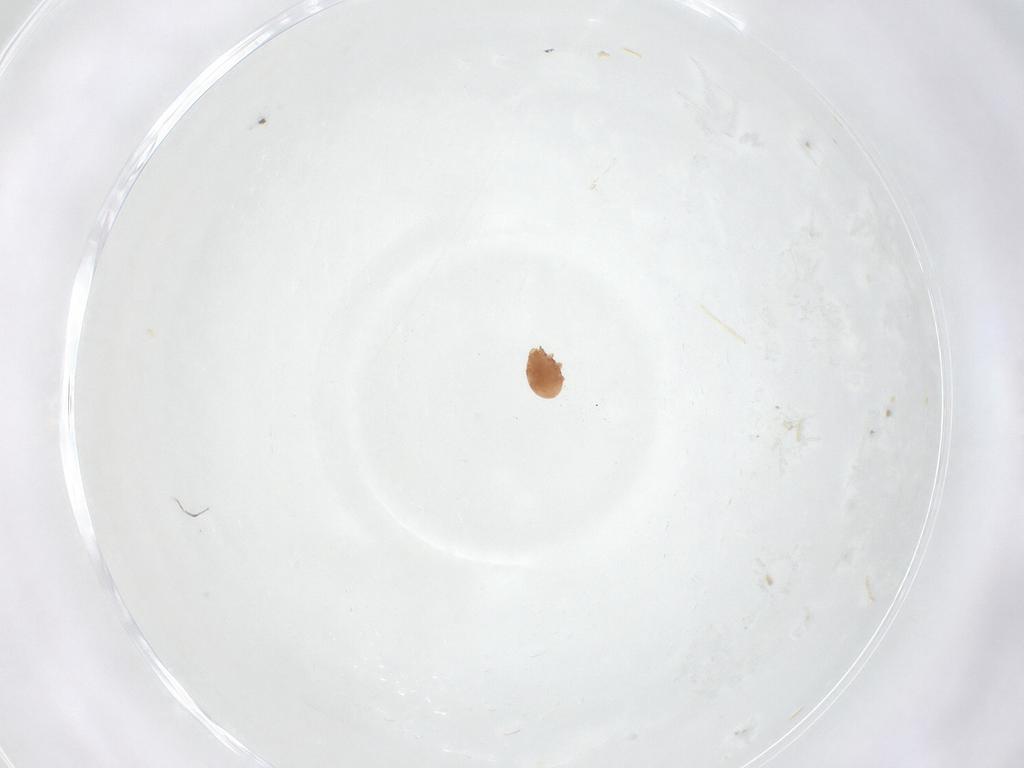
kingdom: Animalia
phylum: Arthropoda
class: Arachnida
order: Mesostigmata
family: Trematuridae
